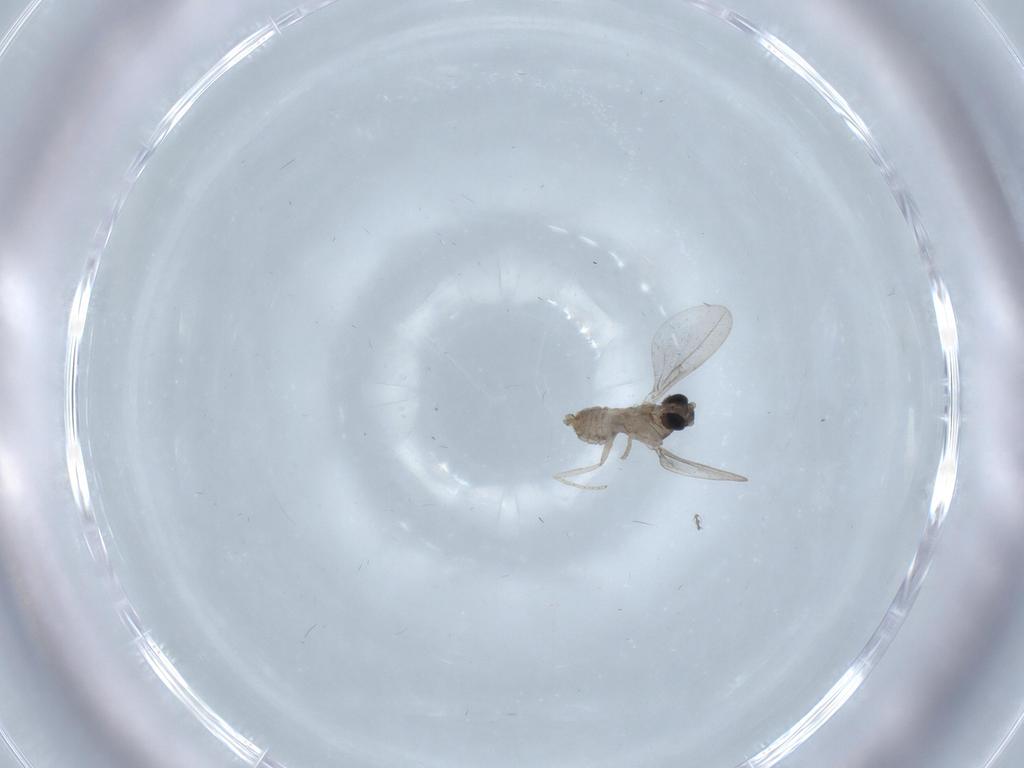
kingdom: Animalia
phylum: Arthropoda
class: Insecta
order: Diptera
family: Cecidomyiidae
